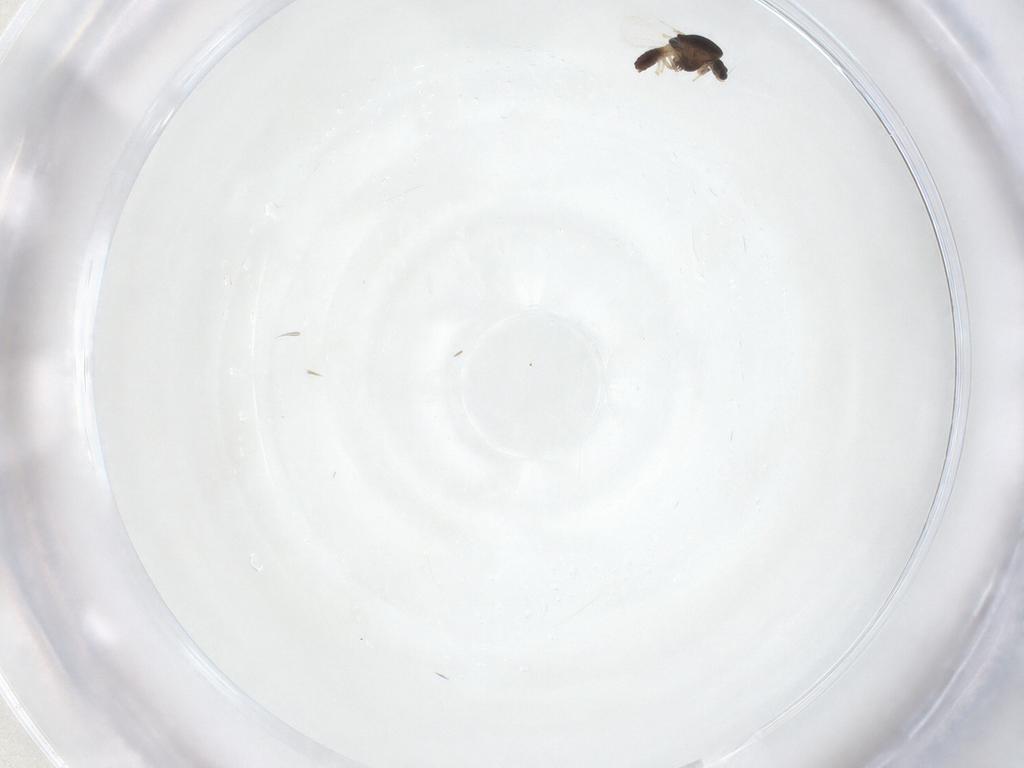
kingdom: Animalia
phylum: Arthropoda
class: Insecta
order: Diptera
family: Chironomidae
